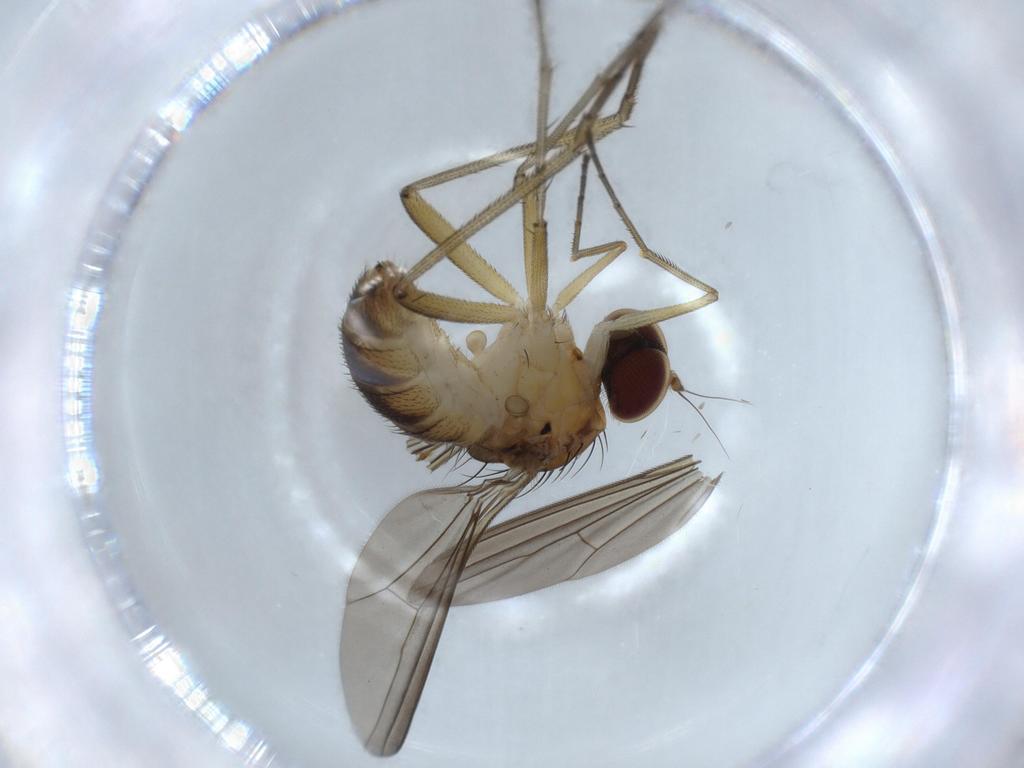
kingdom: Animalia
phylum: Arthropoda
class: Insecta
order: Diptera
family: Dolichopodidae
